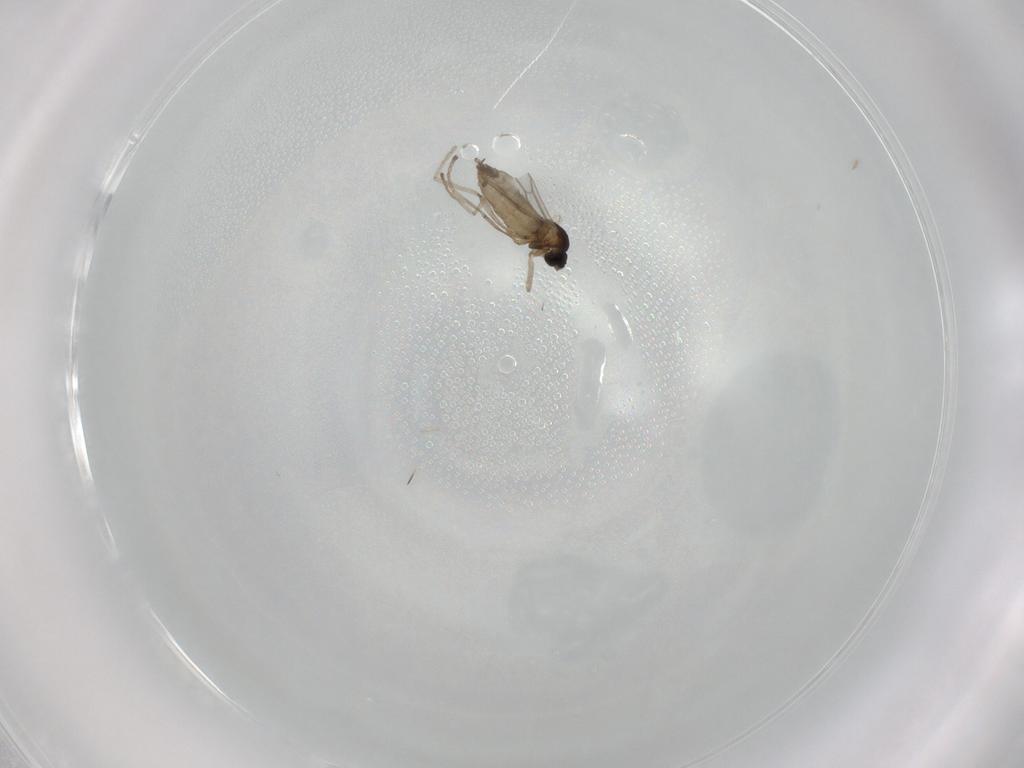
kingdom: Animalia
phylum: Arthropoda
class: Insecta
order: Diptera
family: Cecidomyiidae
